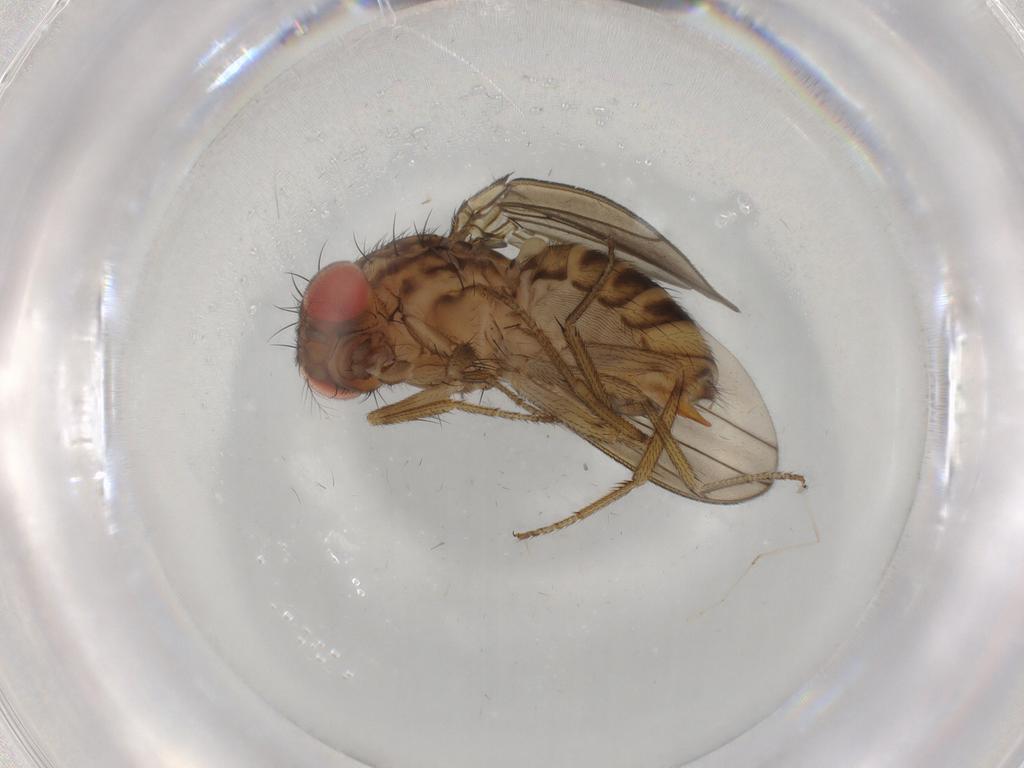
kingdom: Animalia
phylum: Arthropoda
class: Insecta
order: Diptera
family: Drosophilidae
